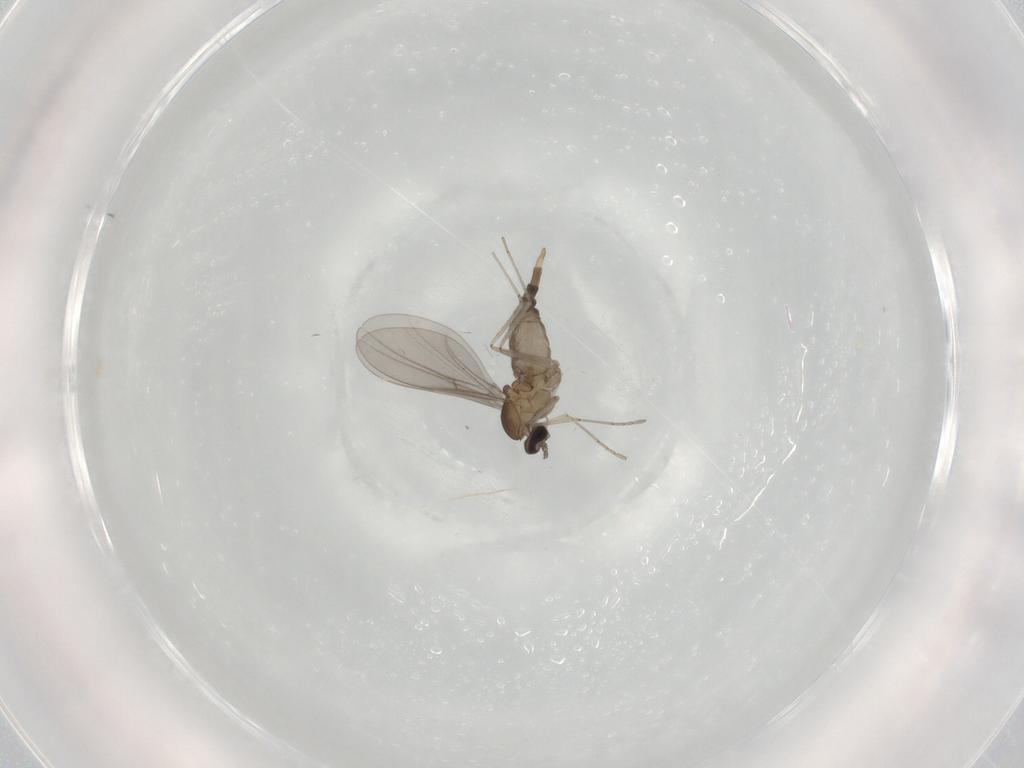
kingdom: Animalia
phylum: Arthropoda
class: Insecta
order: Diptera
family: Cecidomyiidae
